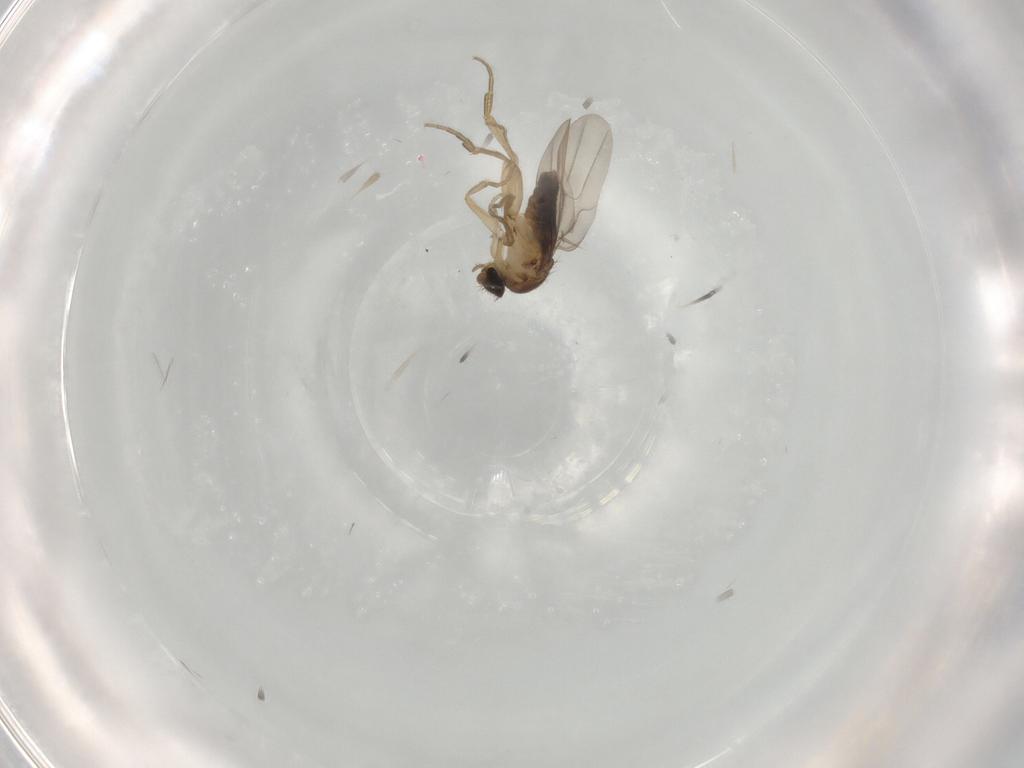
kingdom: Animalia
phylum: Arthropoda
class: Insecta
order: Diptera
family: Phoridae
